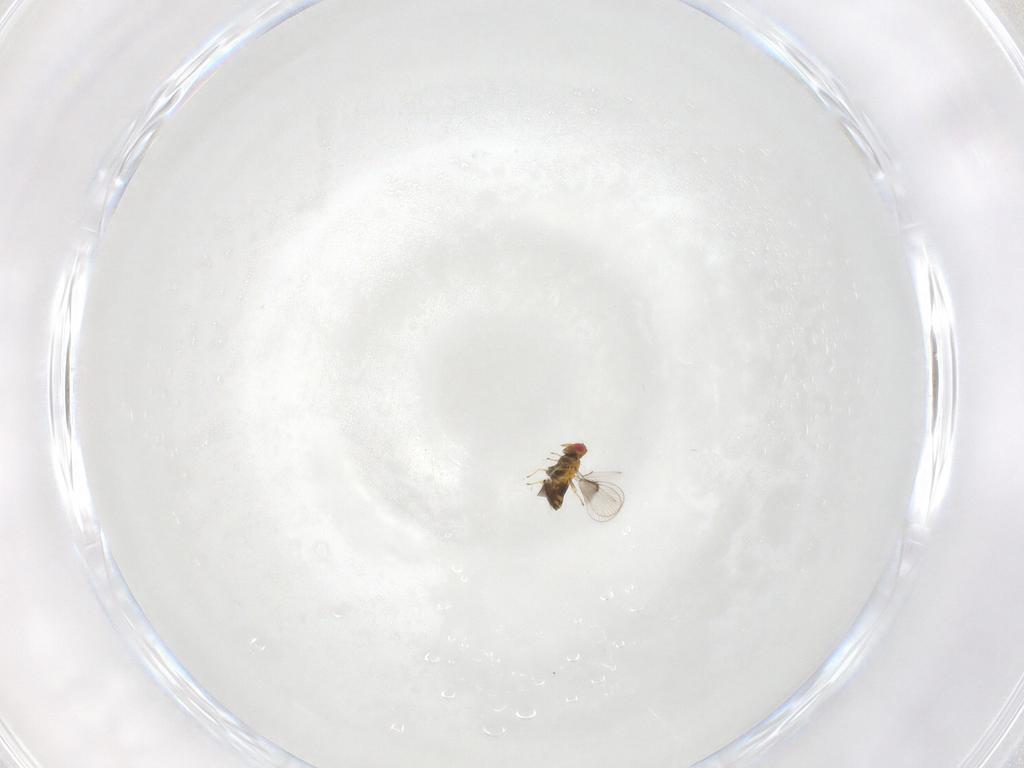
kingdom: Animalia
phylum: Arthropoda
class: Insecta
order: Hymenoptera
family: Trichogrammatidae
